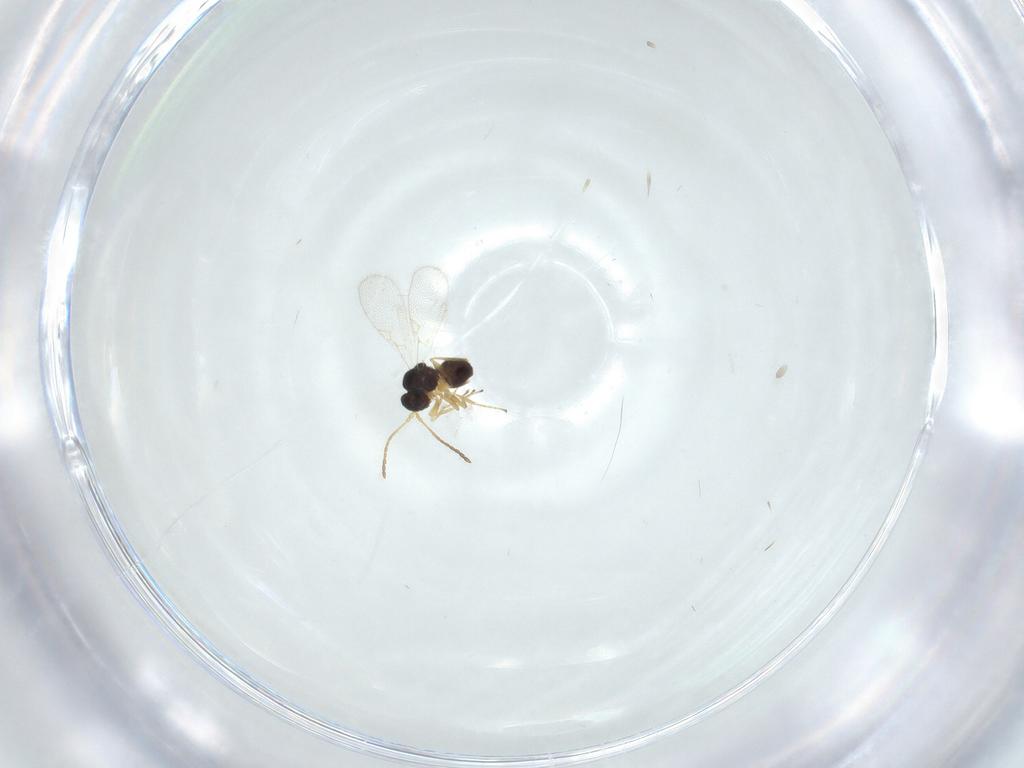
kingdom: Animalia
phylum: Arthropoda
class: Insecta
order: Hymenoptera
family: Figitidae
